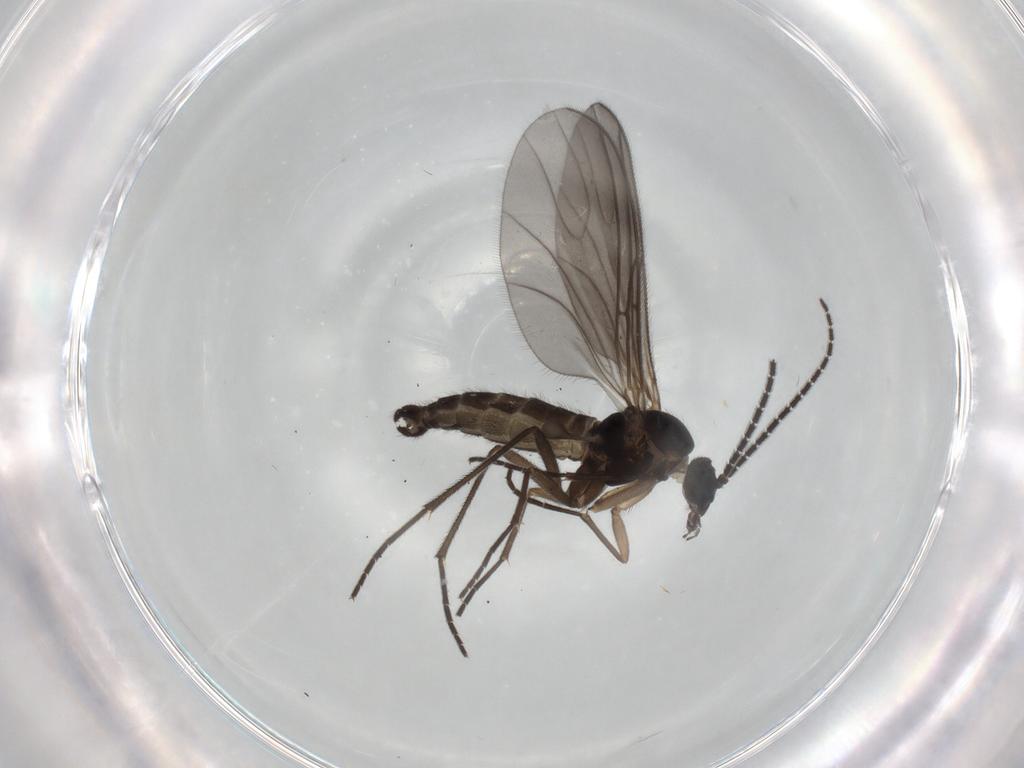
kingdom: Animalia
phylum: Arthropoda
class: Insecta
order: Diptera
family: Sciaridae
